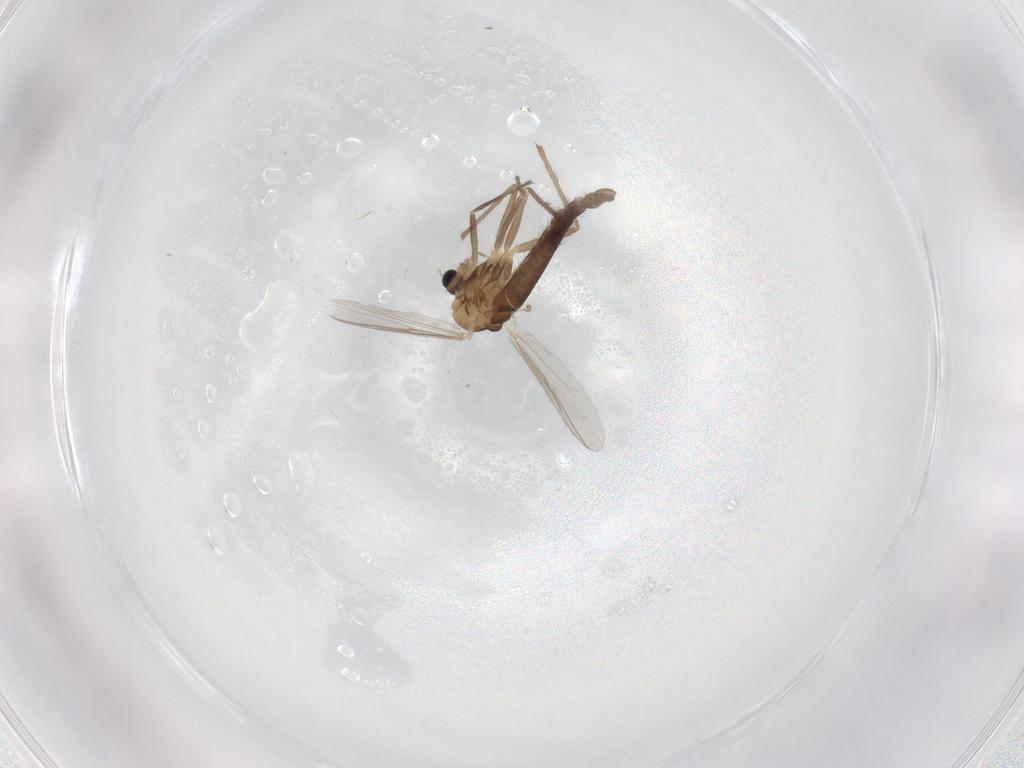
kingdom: Animalia
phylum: Arthropoda
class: Insecta
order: Diptera
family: Chironomidae
